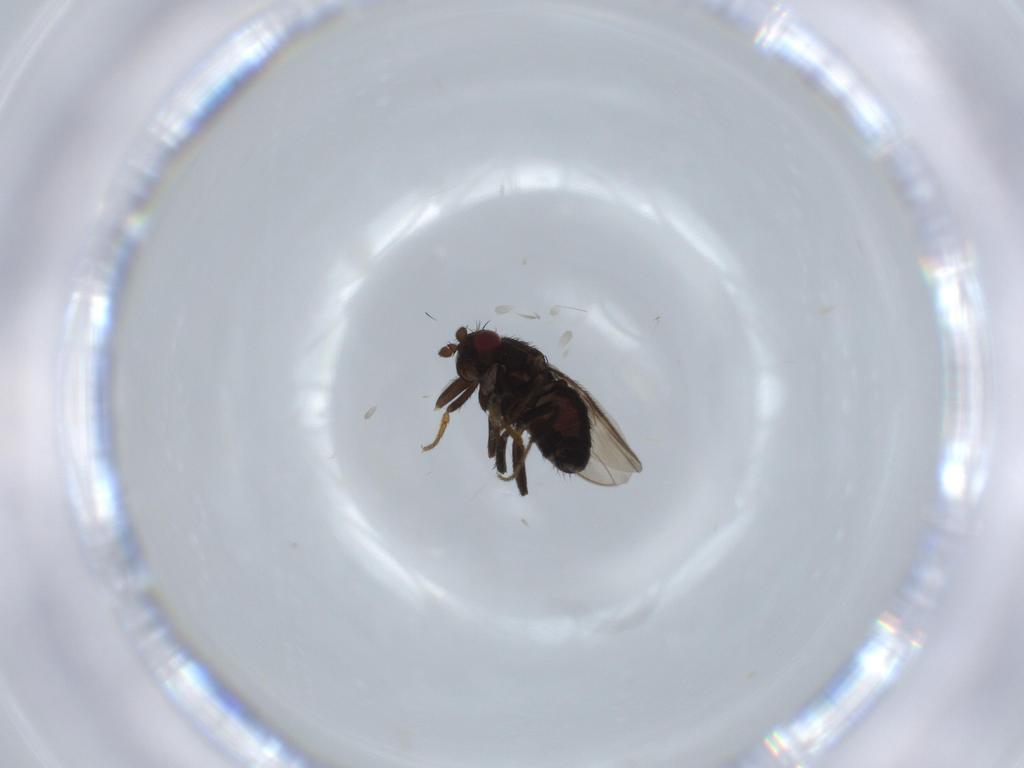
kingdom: Animalia
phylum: Arthropoda
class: Insecta
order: Diptera
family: Sphaeroceridae
